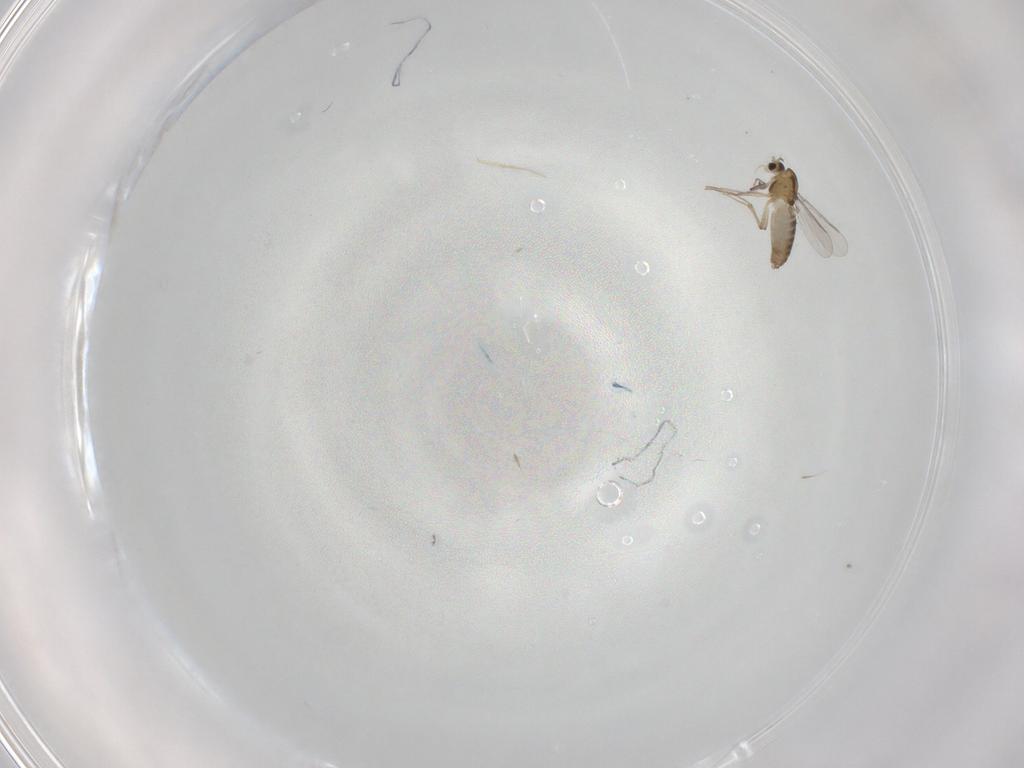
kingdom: Animalia
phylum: Arthropoda
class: Insecta
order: Diptera
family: Chironomidae
